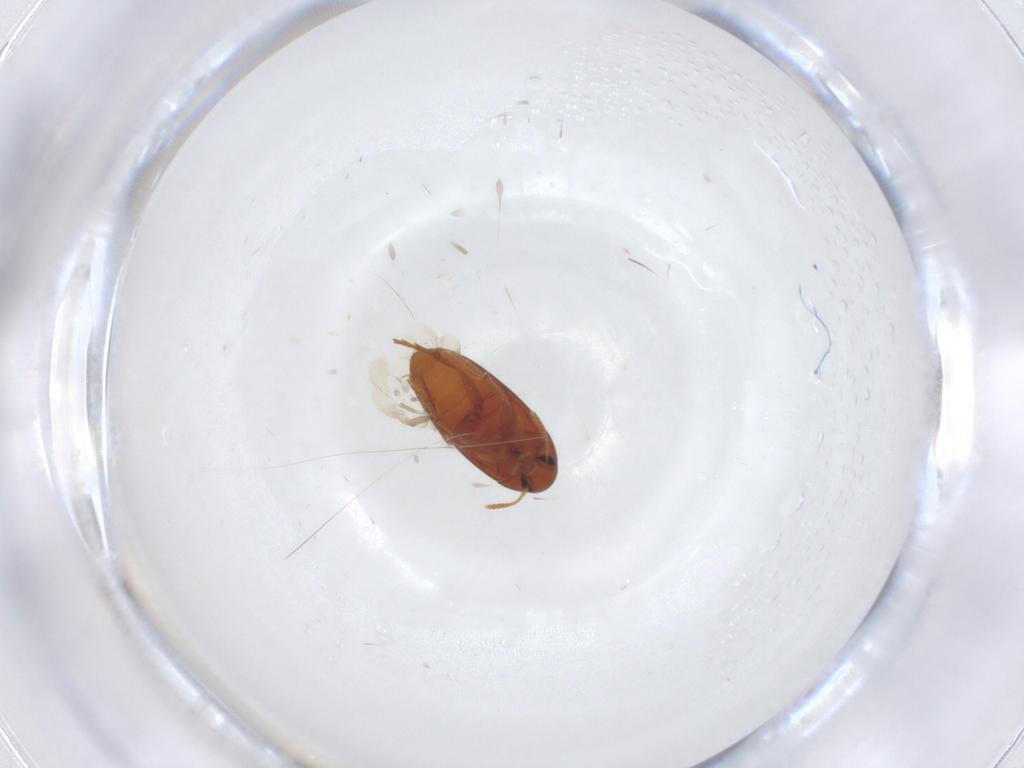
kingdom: Animalia
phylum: Arthropoda
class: Insecta
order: Coleoptera
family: Scraptiidae
